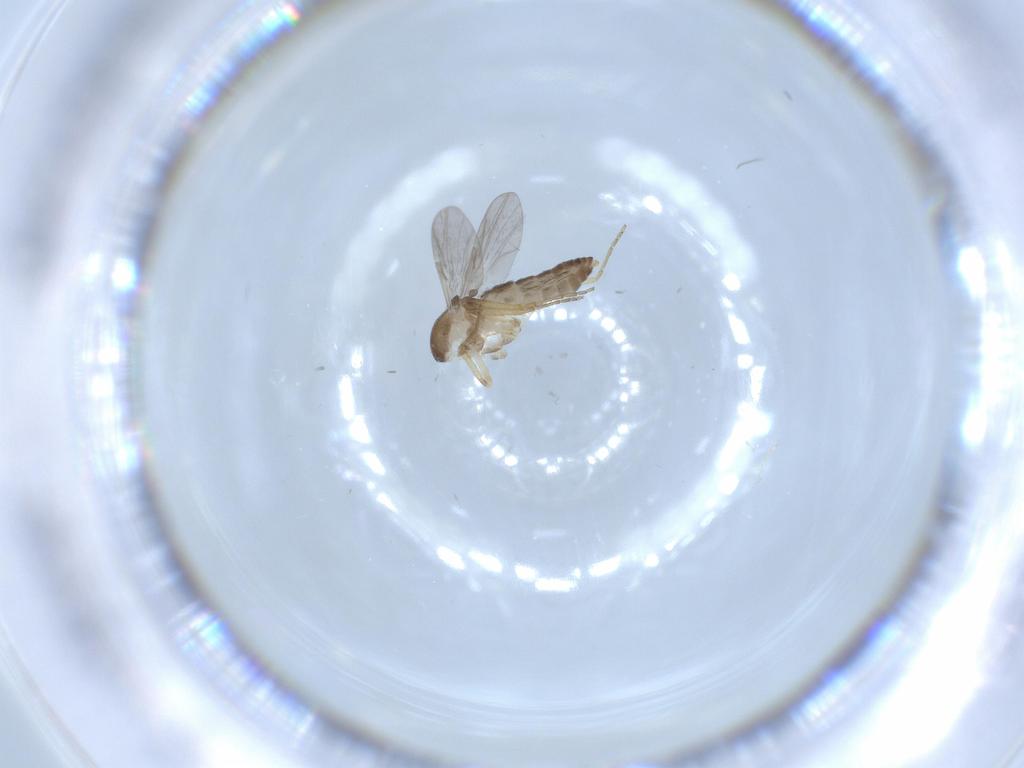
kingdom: Animalia
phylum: Arthropoda
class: Insecta
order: Diptera
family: Ceratopogonidae
